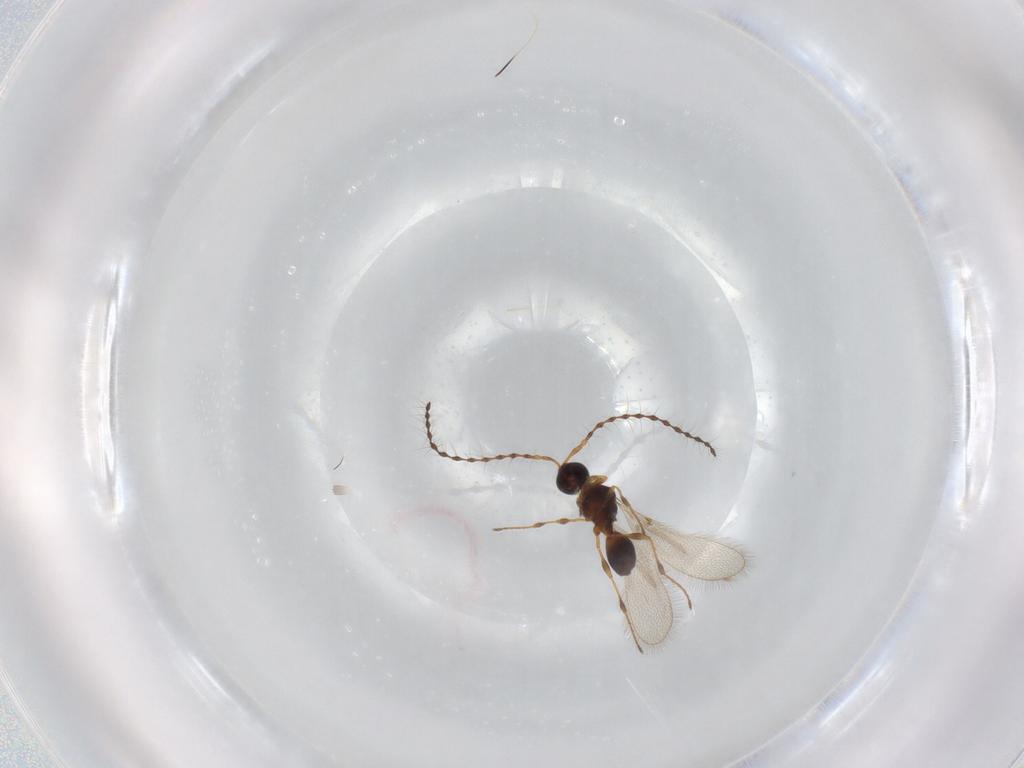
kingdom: Animalia
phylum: Arthropoda
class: Insecta
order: Hymenoptera
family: Diapriidae
